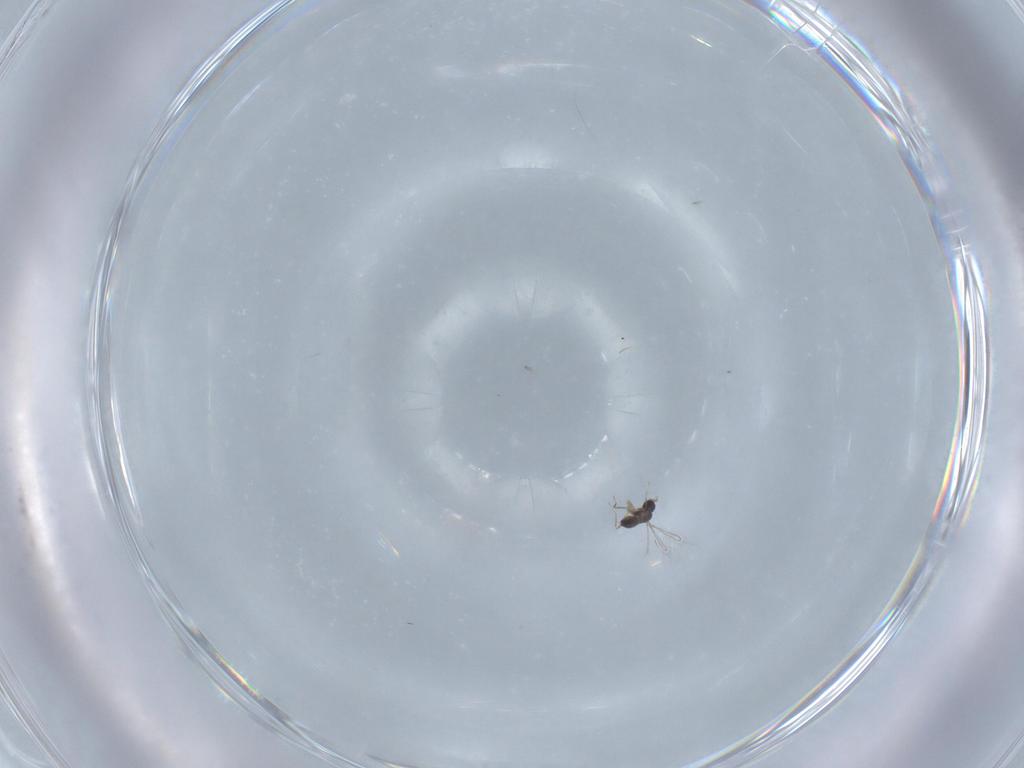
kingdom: Animalia
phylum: Arthropoda
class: Insecta
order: Hymenoptera
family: Mymaridae
